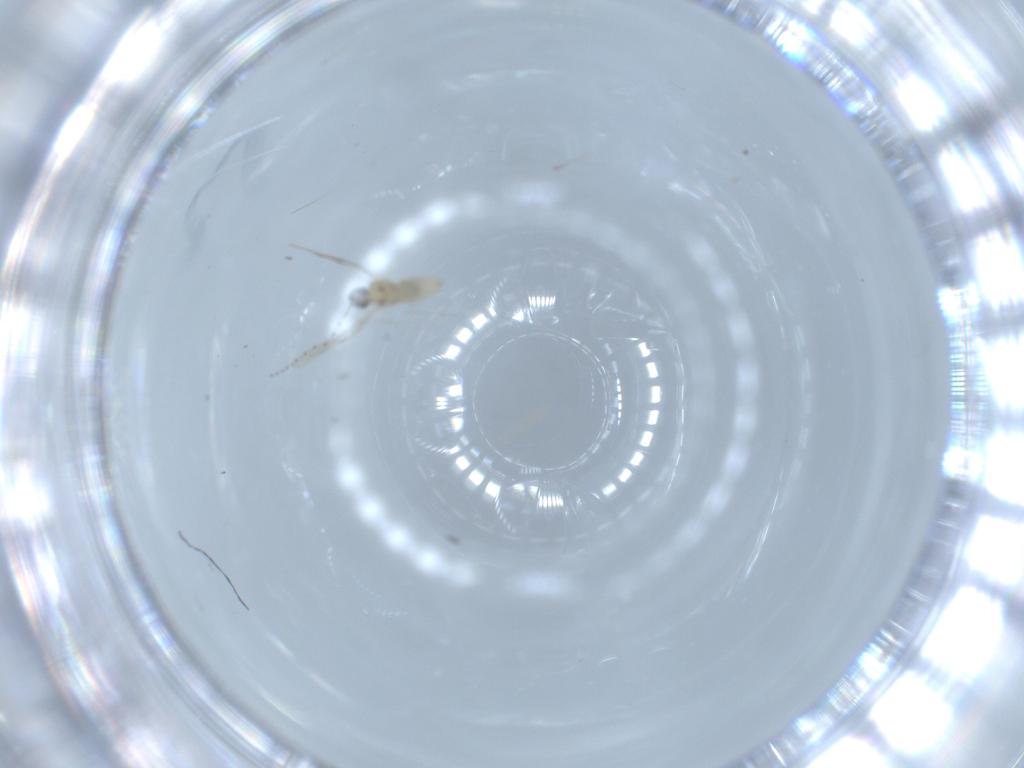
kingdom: Animalia
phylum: Arthropoda
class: Insecta
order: Diptera
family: Cecidomyiidae
